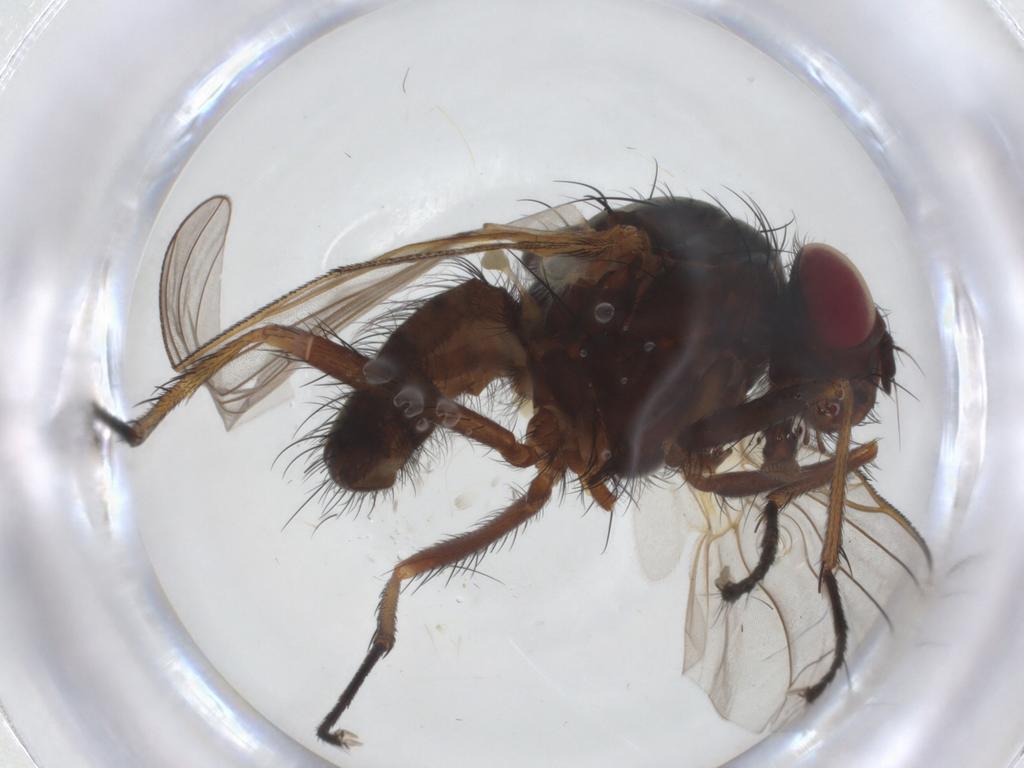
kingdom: Animalia
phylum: Arthropoda
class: Insecta
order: Diptera
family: Anthomyiidae
